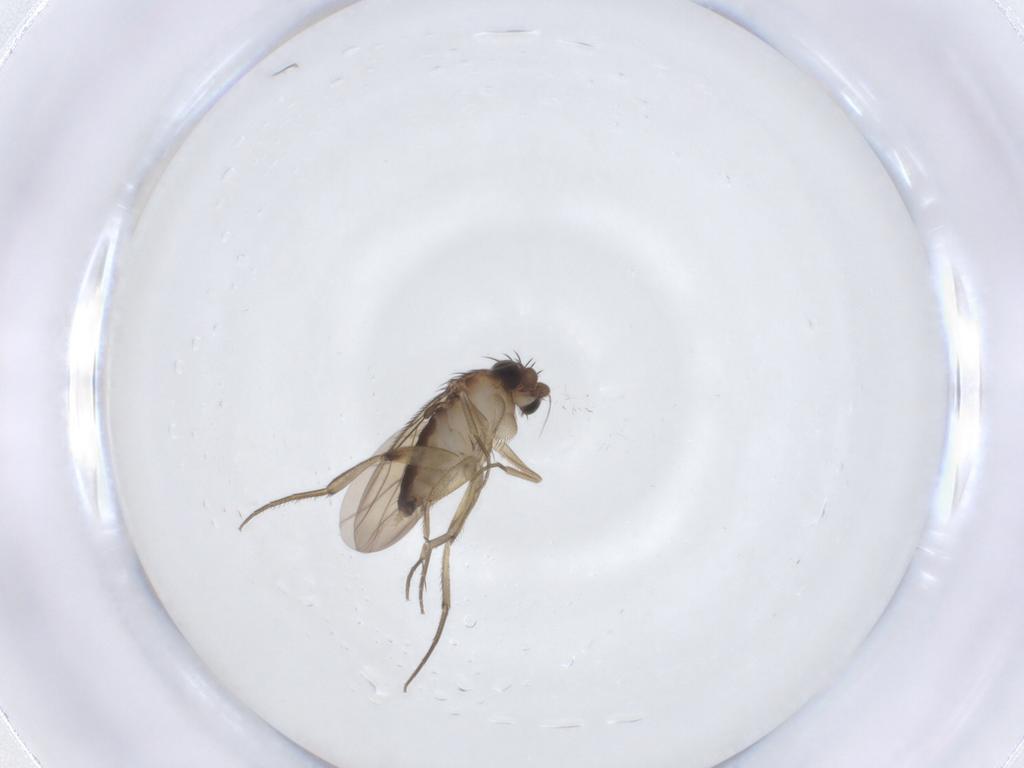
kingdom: Animalia
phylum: Arthropoda
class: Insecta
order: Diptera
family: Phoridae
